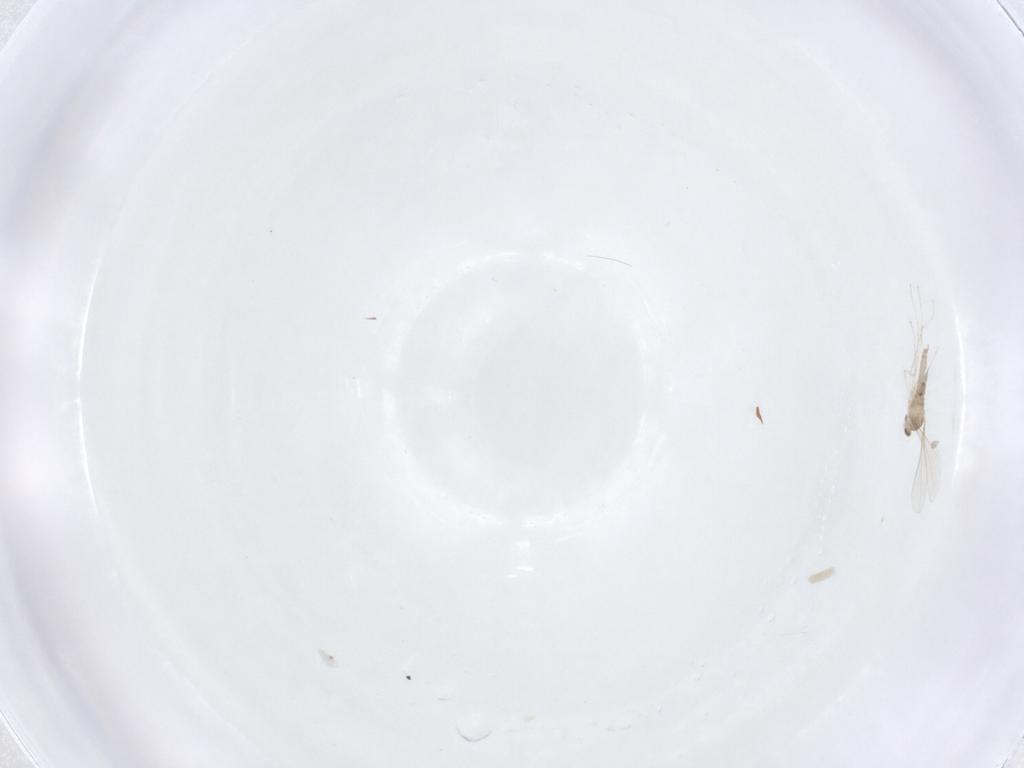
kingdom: Animalia
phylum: Arthropoda
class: Insecta
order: Diptera
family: Cecidomyiidae
